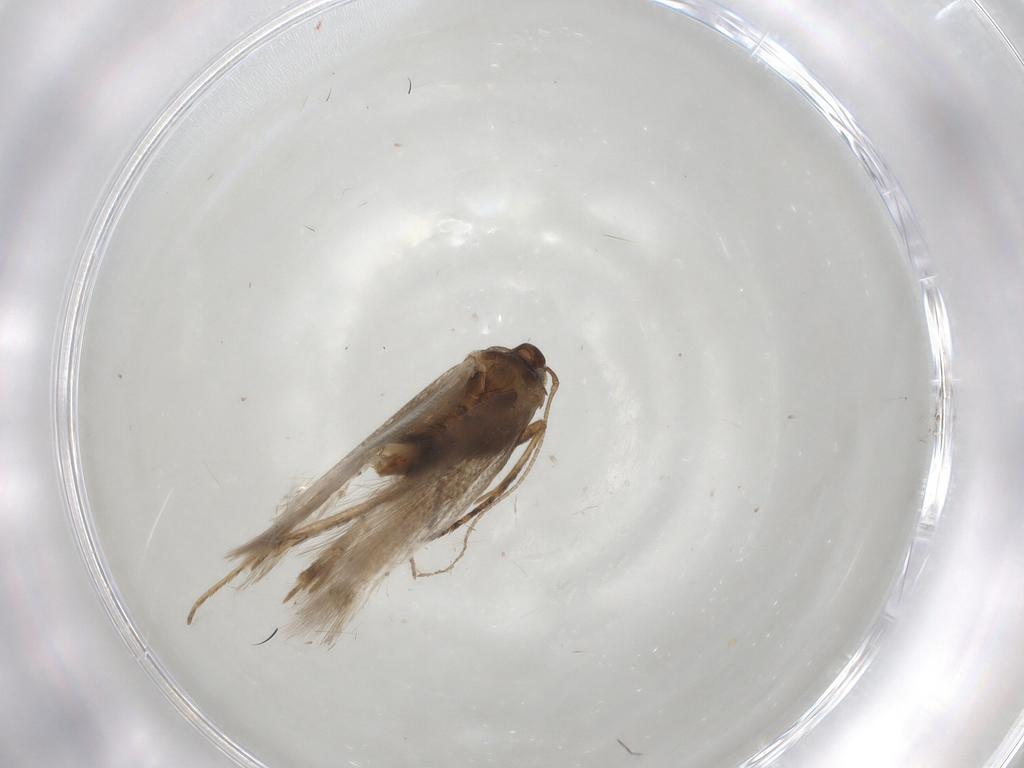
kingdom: Animalia
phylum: Arthropoda
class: Insecta
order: Lepidoptera
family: Gelechiidae
